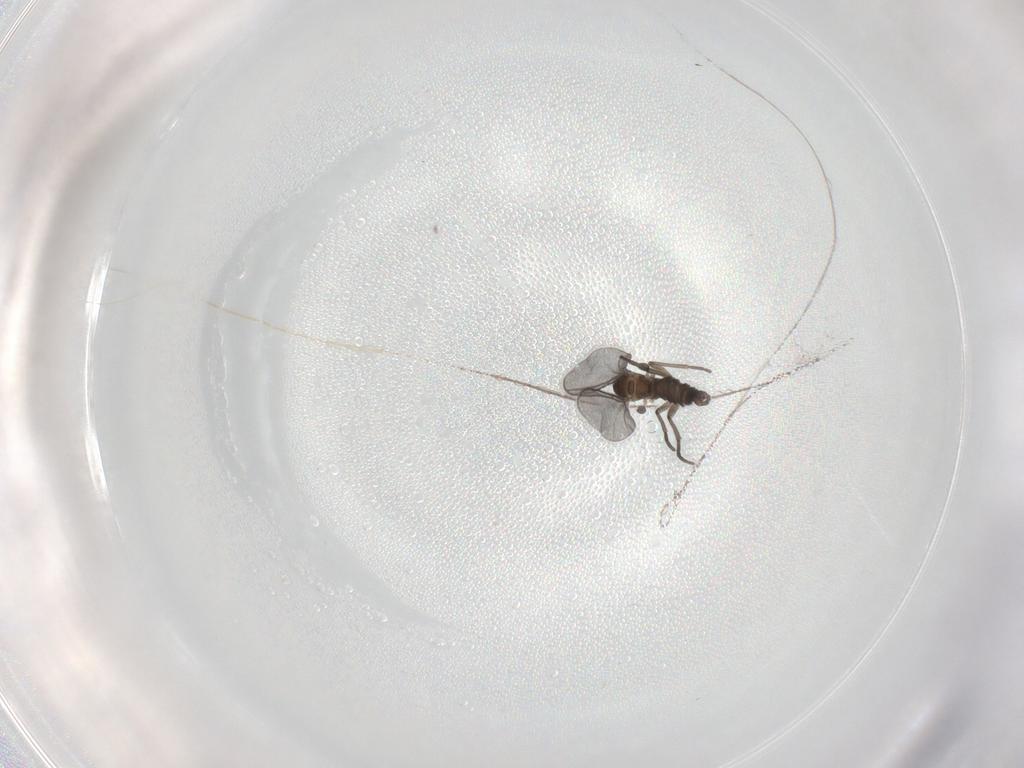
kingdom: Animalia
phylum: Arthropoda
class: Insecta
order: Diptera
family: Sciaridae
